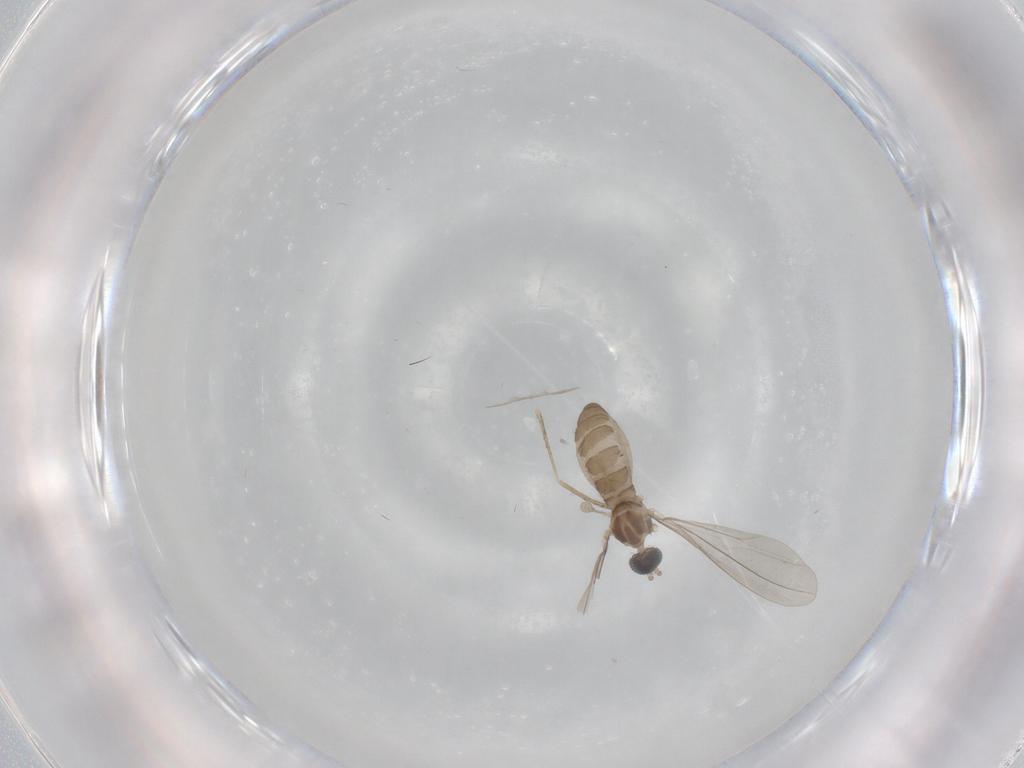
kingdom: Animalia
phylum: Arthropoda
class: Insecta
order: Diptera
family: Cecidomyiidae
